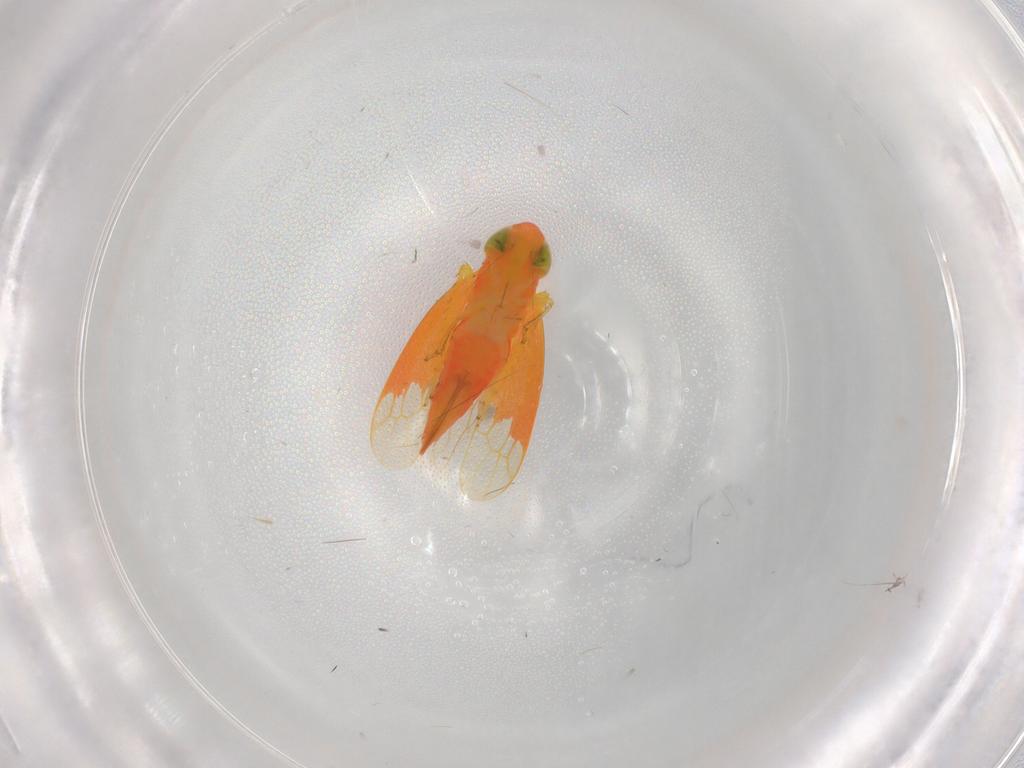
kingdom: Animalia
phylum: Arthropoda
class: Insecta
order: Hemiptera
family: Cicadellidae
